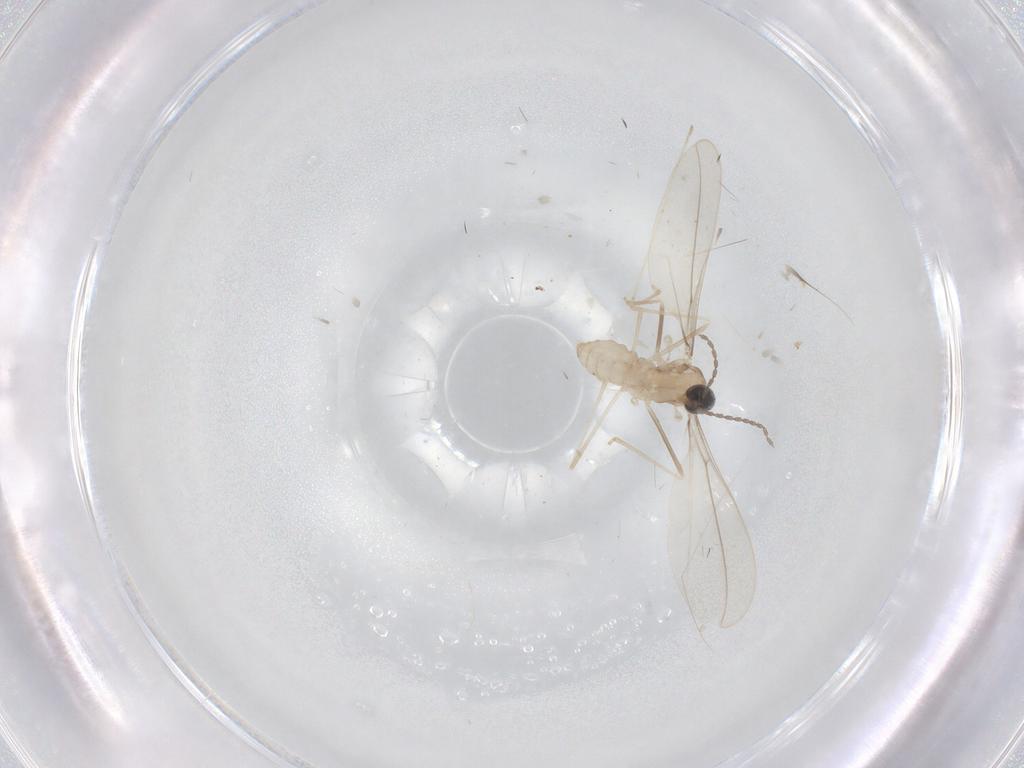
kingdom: Animalia
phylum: Arthropoda
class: Insecta
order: Diptera
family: Cecidomyiidae
